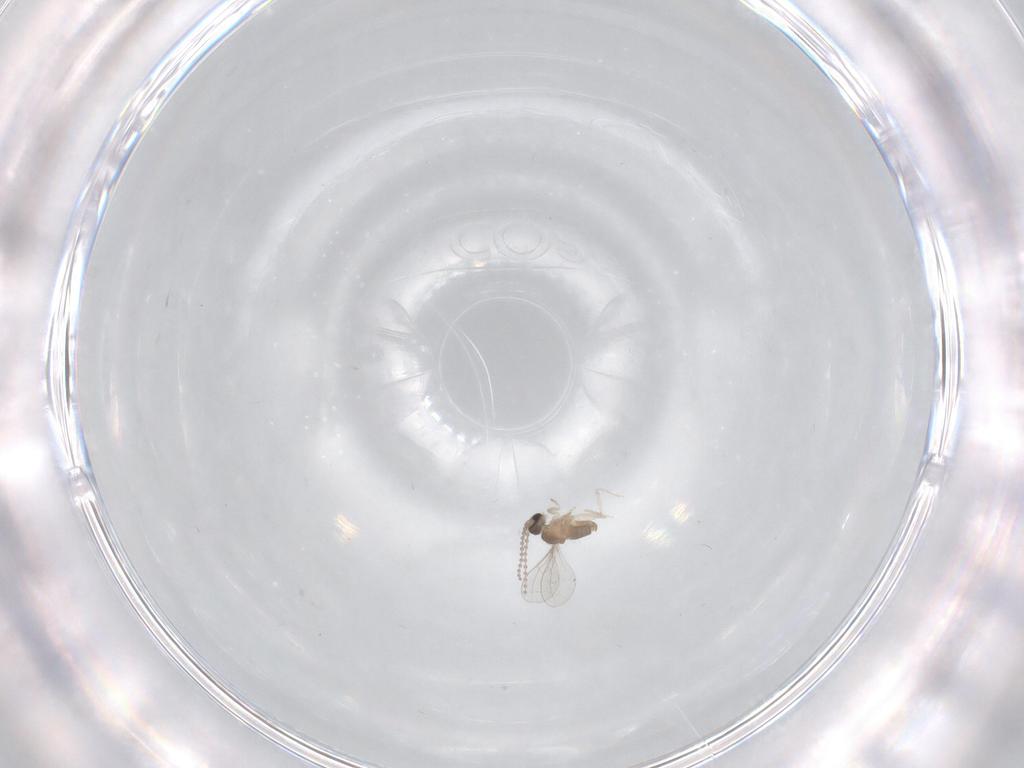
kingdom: Animalia
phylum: Arthropoda
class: Insecta
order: Diptera
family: Cecidomyiidae
